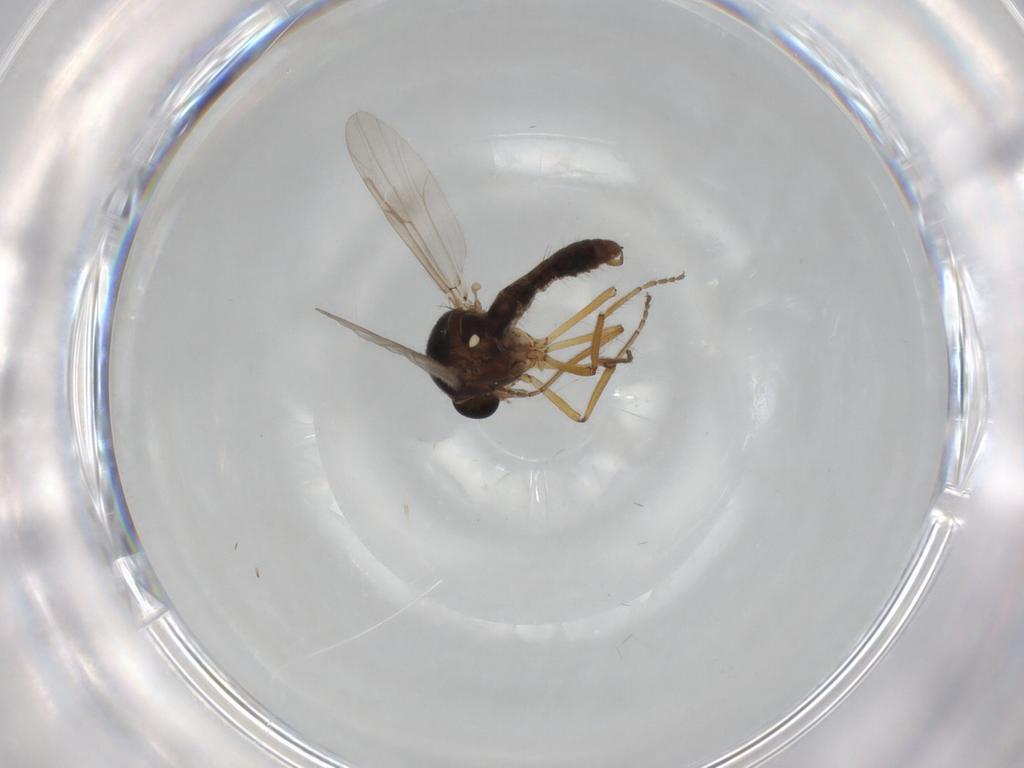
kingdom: Animalia
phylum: Arthropoda
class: Insecta
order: Diptera
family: Ceratopogonidae
